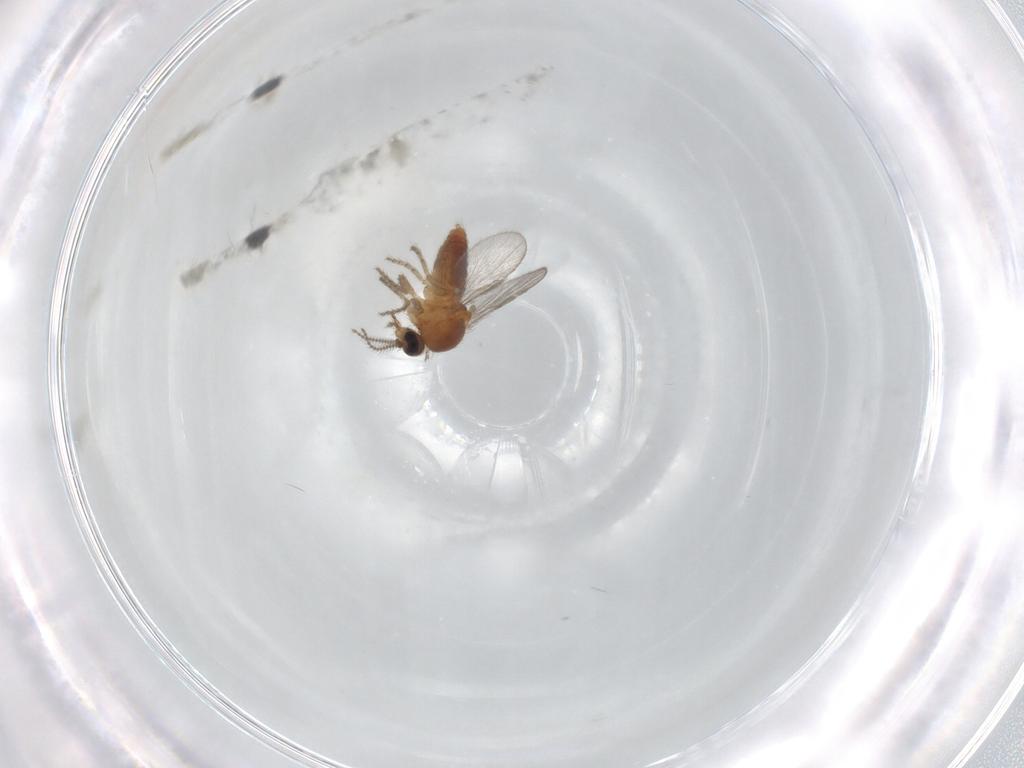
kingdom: Animalia
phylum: Arthropoda
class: Insecta
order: Diptera
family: Ceratopogonidae
